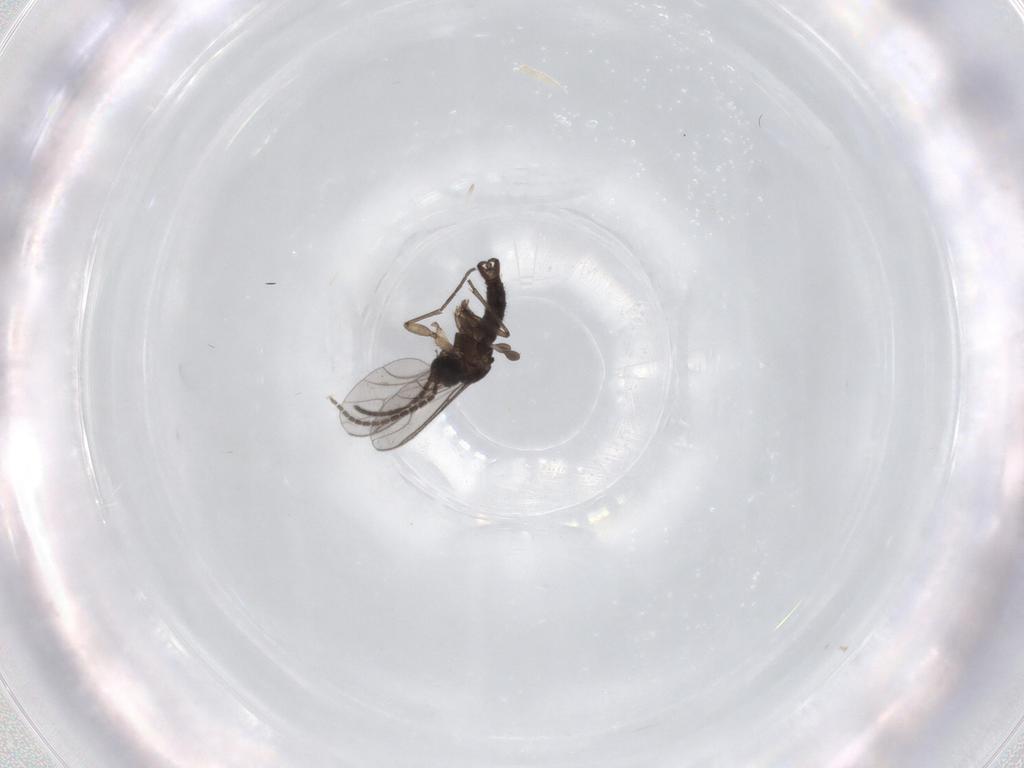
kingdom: Animalia
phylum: Arthropoda
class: Insecta
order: Diptera
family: Sciaridae
